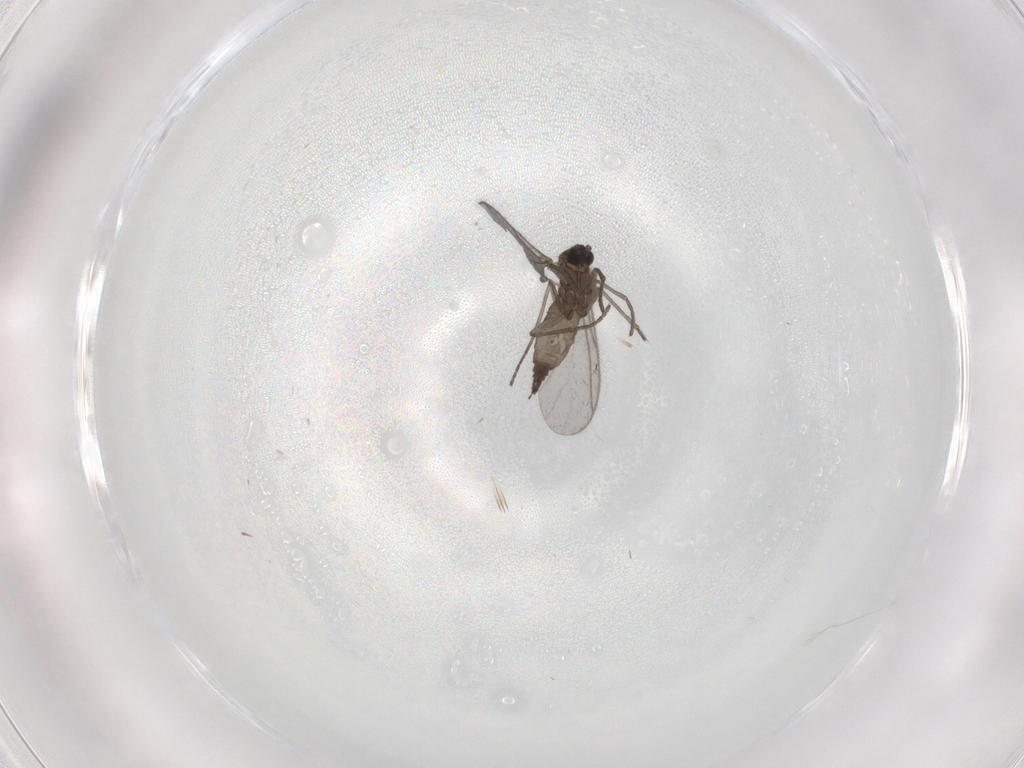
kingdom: Animalia
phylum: Arthropoda
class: Insecta
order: Diptera
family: Sciaridae
